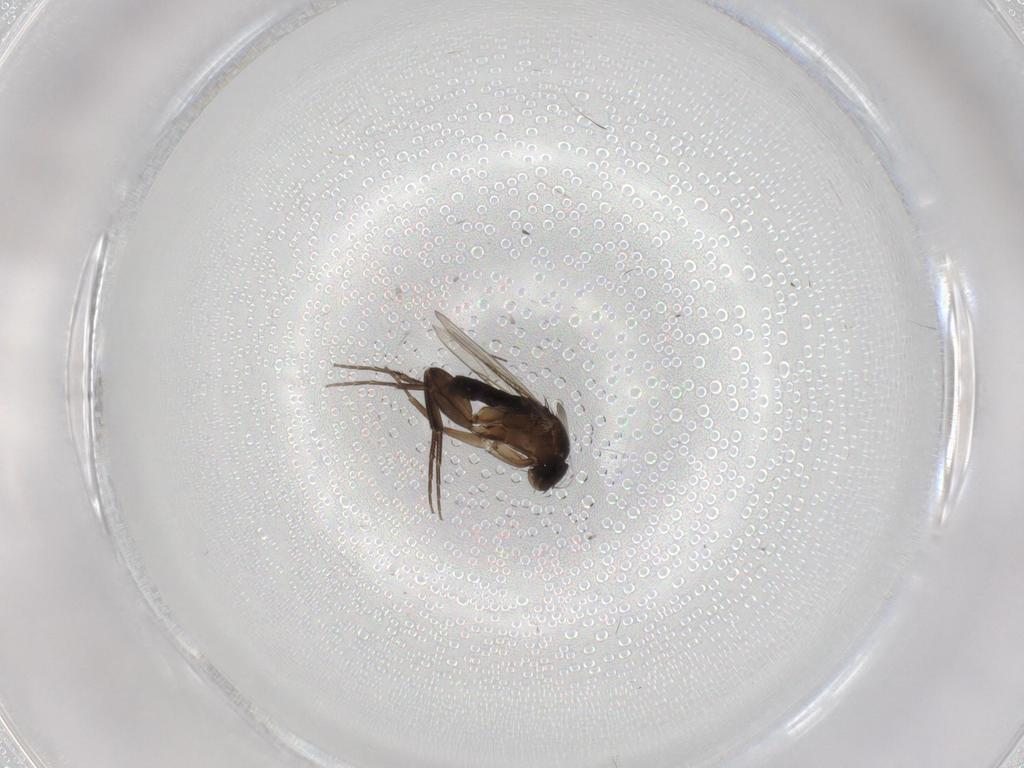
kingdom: Animalia
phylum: Arthropoda
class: Insecta
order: Diptera
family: Phoridae
